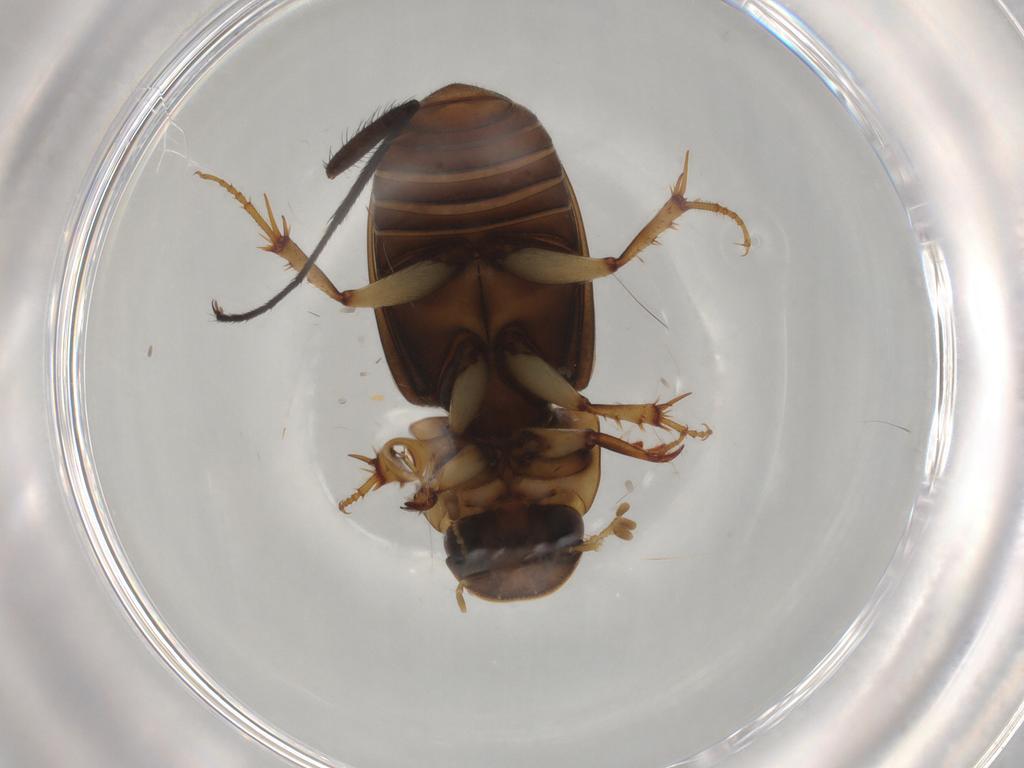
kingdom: Animalia
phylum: Arthropoda
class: Insecta
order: Coleoptera
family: Scarabaeidae
